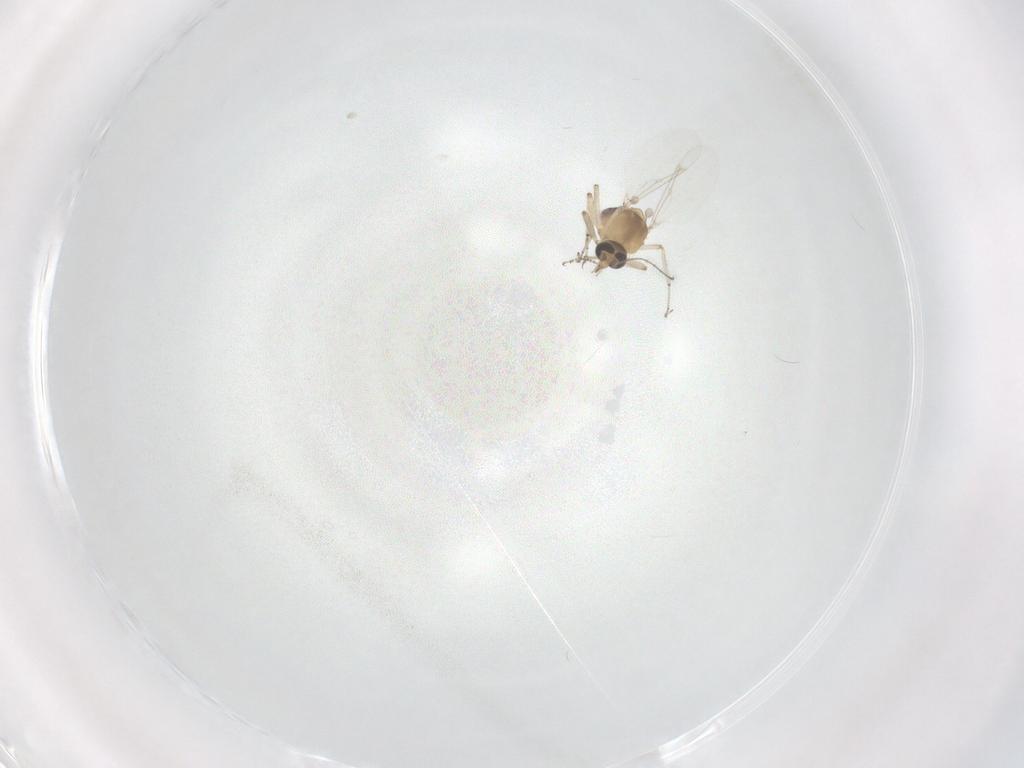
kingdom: Animalia
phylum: Arthropoda
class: Insecta
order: Diptera
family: Ceratopogonidae
